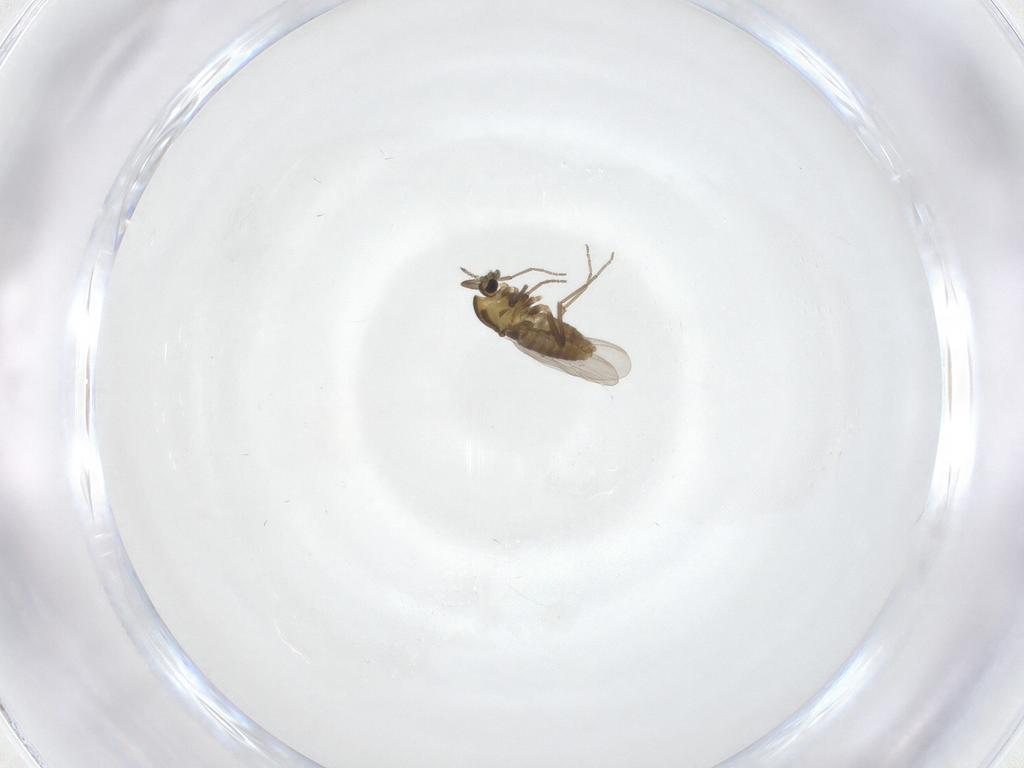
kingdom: Animalia
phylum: Arthropoda
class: Insecta
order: Diptera
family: Chironomidae
